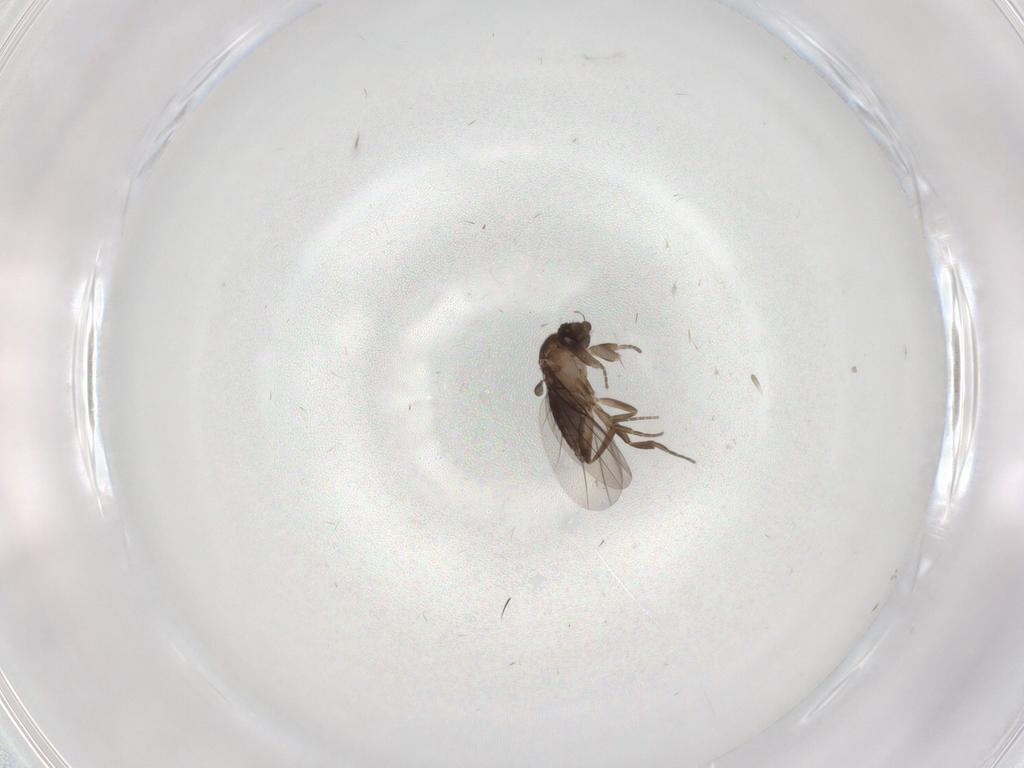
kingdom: Animalia
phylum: Arthropoda
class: Insecta
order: Diptera
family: Cecidomyiidae
